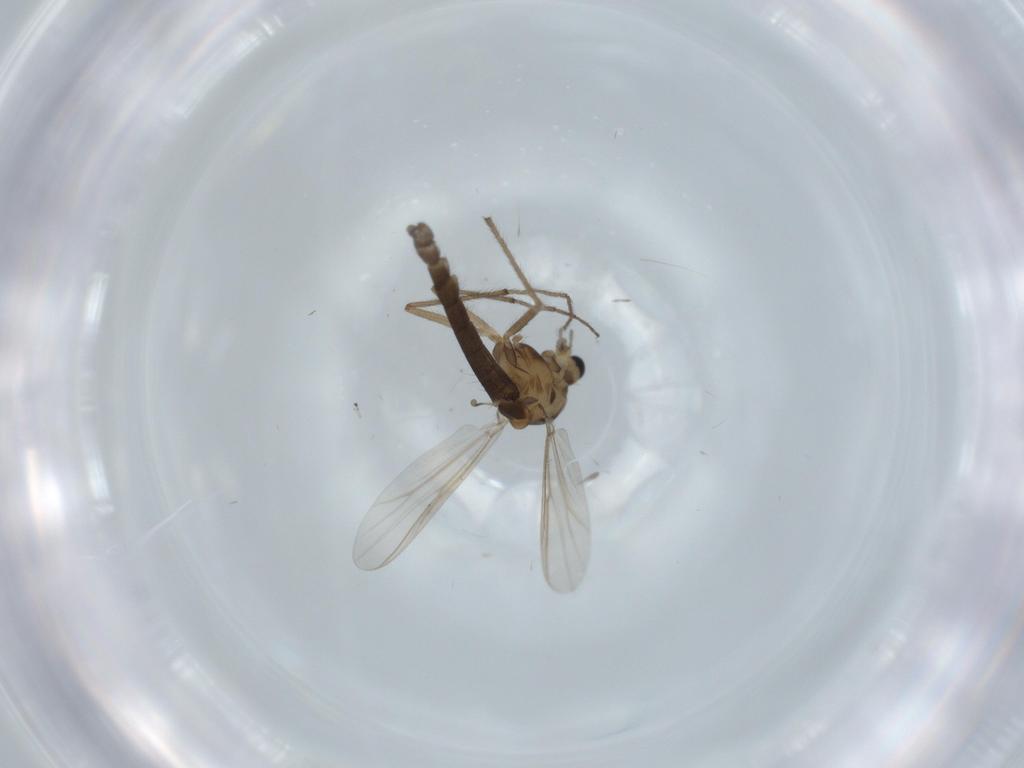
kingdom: Animalia
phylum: Arthropoda
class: Insecta
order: Diptera
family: Chironomidae
